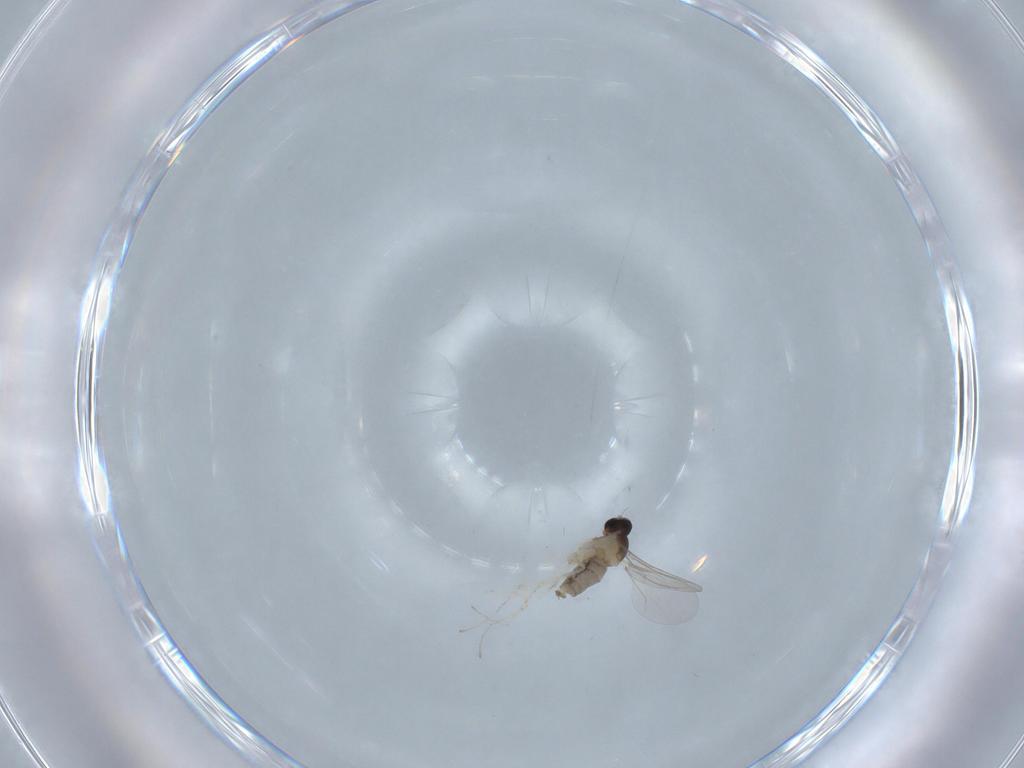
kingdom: Animalia
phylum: Arthropoda
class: Insecta
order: Diptera
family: Cecidomyiidae
